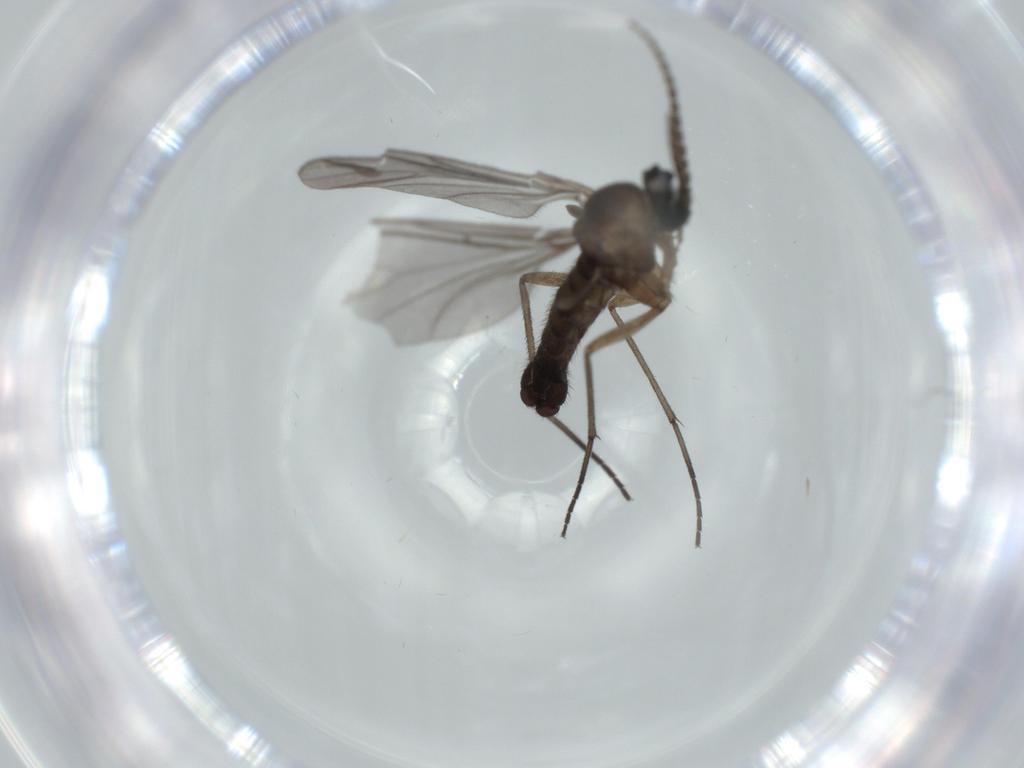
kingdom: Animalia
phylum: Arthropoda
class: Insecta
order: Diptera
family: Sciaridae
